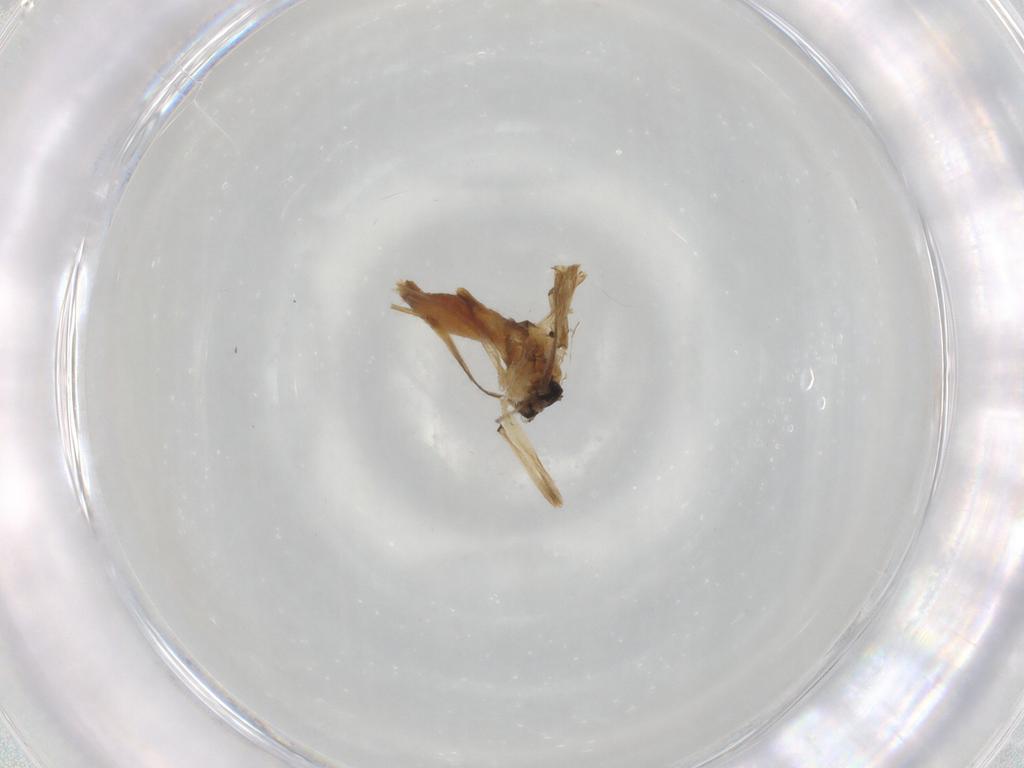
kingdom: Animalia
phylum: Arthropoda
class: Insecta
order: Diptera
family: Chironomidae
